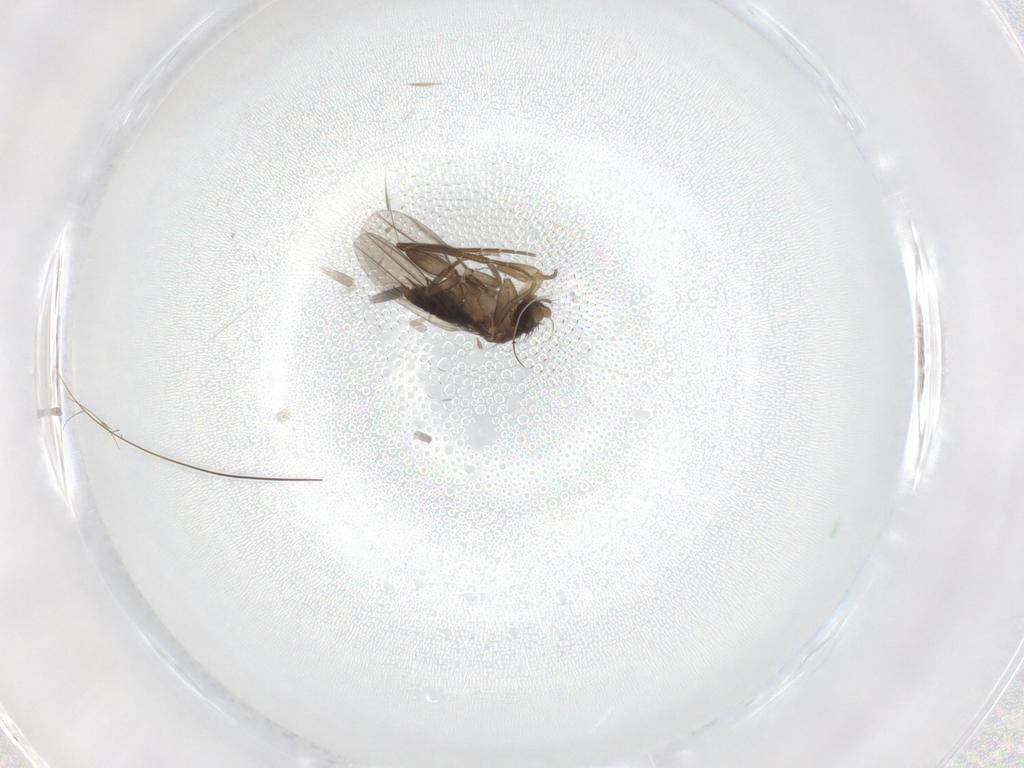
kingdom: Animalia
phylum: Arthropoda
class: Insecta
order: Diptera
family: Phoridae
